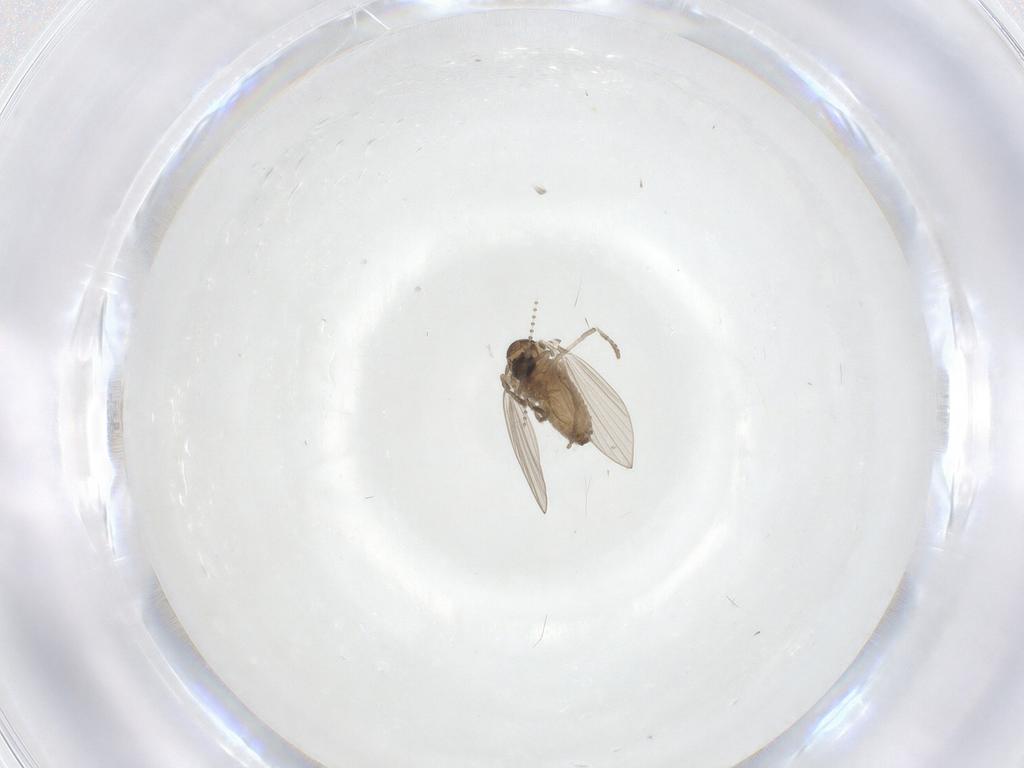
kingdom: Animalia
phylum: Arthropoda
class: Insecta
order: Diptera
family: Psychodidae
